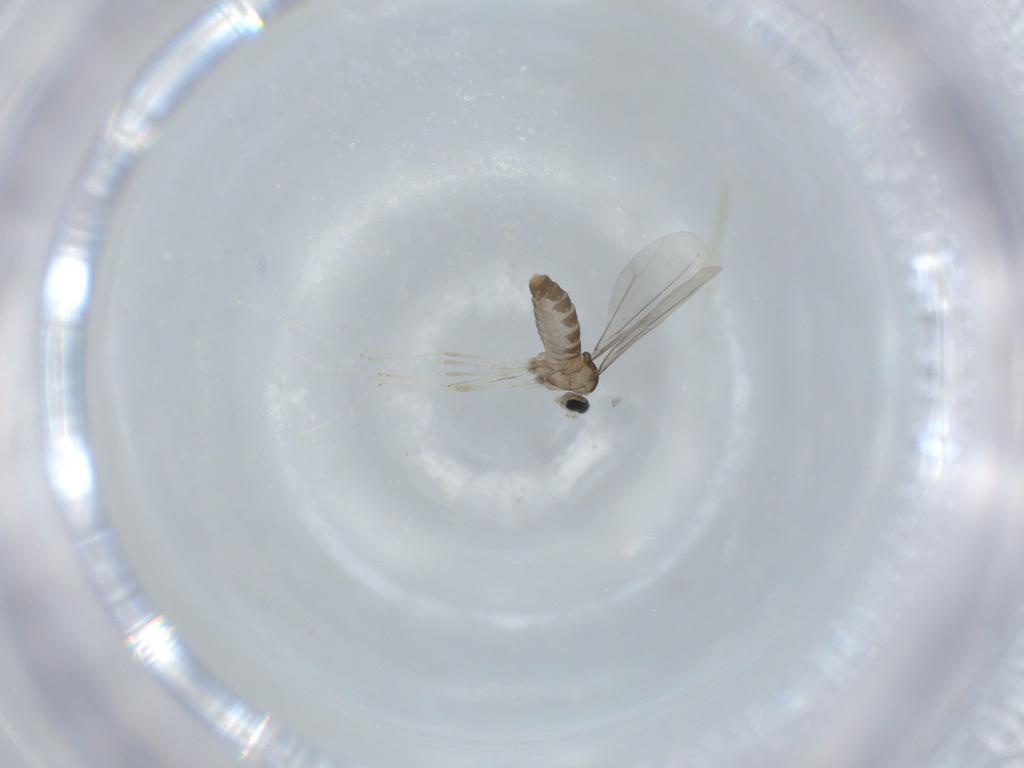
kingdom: Animalia
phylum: Arthropoda
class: Insecta
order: Diptera
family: Cecidomyiidae
